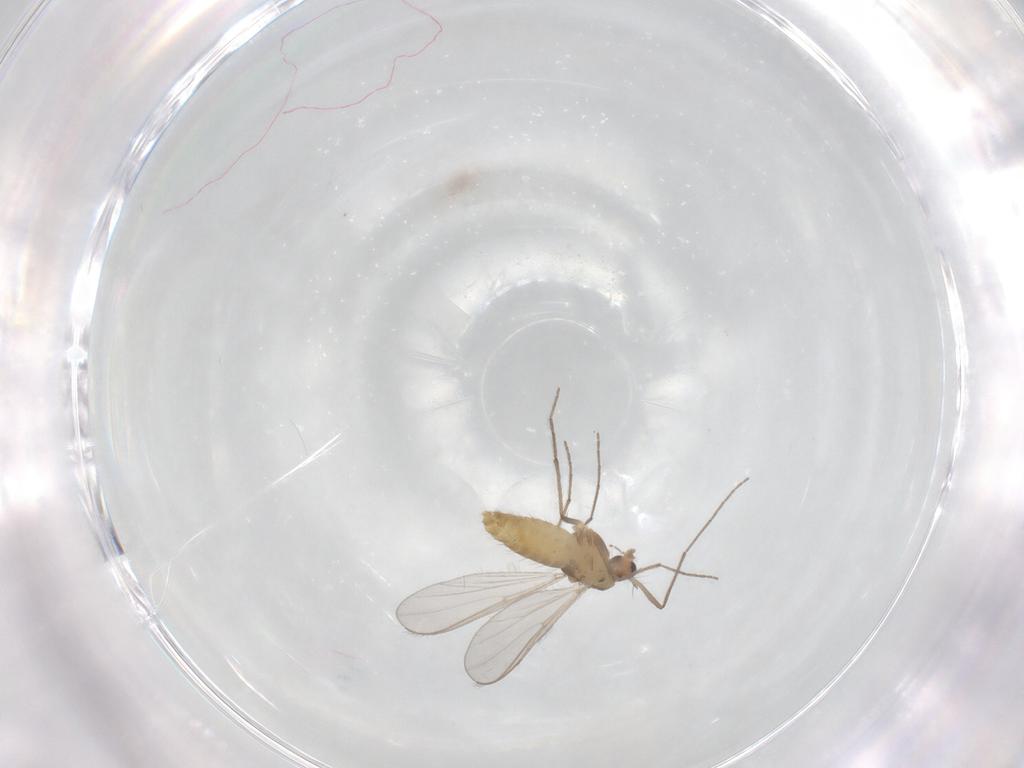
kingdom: Animalia
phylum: Arthropoda
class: Insecta
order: Diptera
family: Chironomidae
